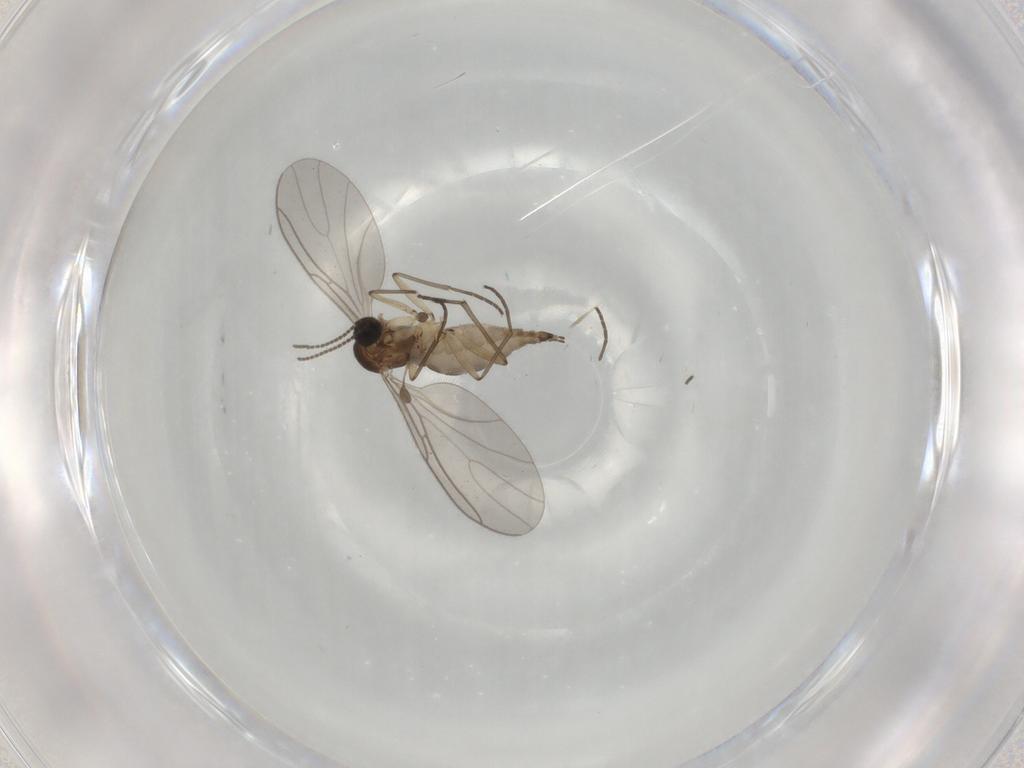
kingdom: Animalia
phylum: Arthropoda
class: Insecta
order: Diptera
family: Sciaridae
